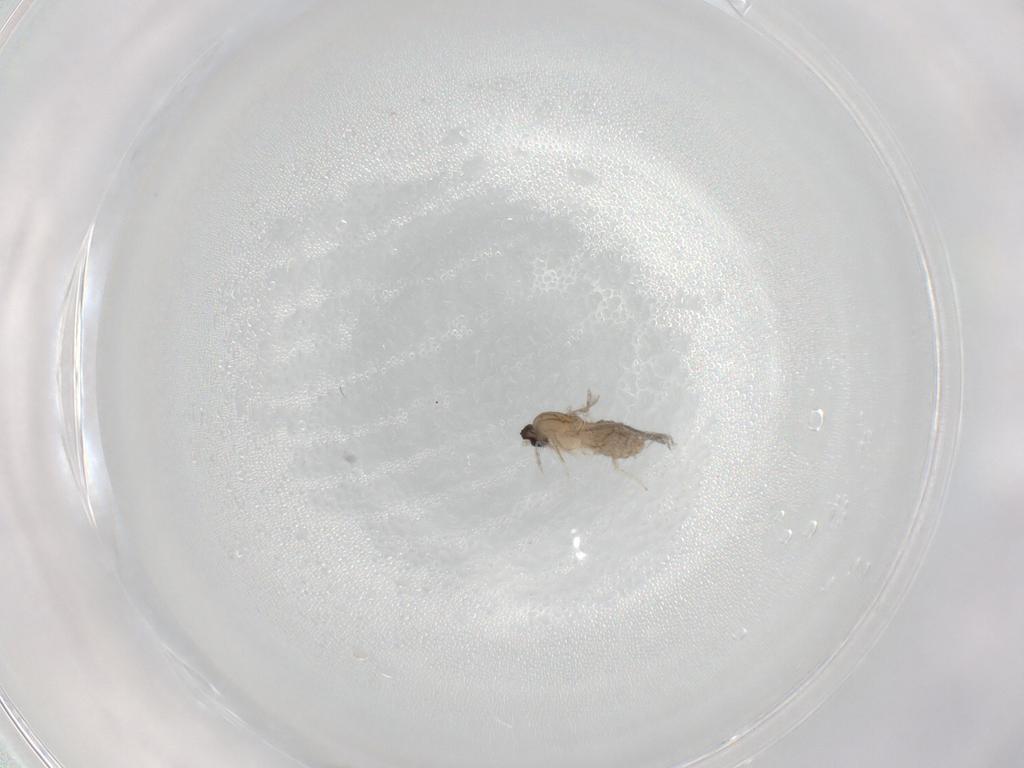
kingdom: Animalia
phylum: Arthropoda
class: Insecta
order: Diptera
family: Cecidomyiidae
